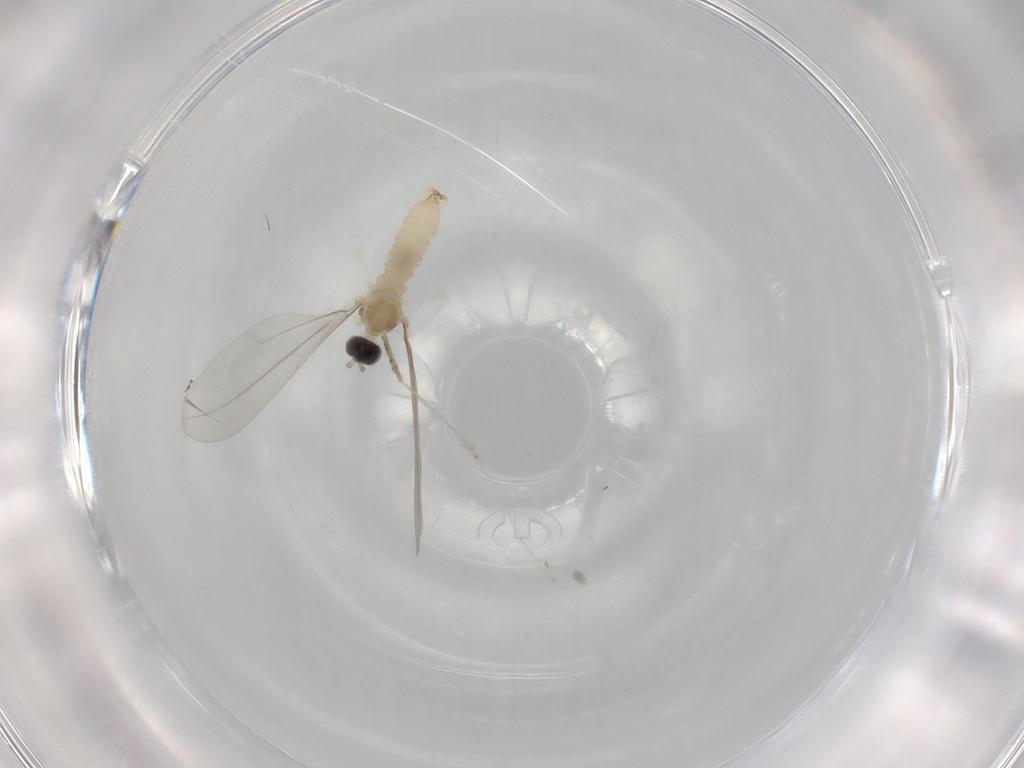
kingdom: Animalia
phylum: Arthropoda
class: Insecta
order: Diptera
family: Cecidomyiidae
